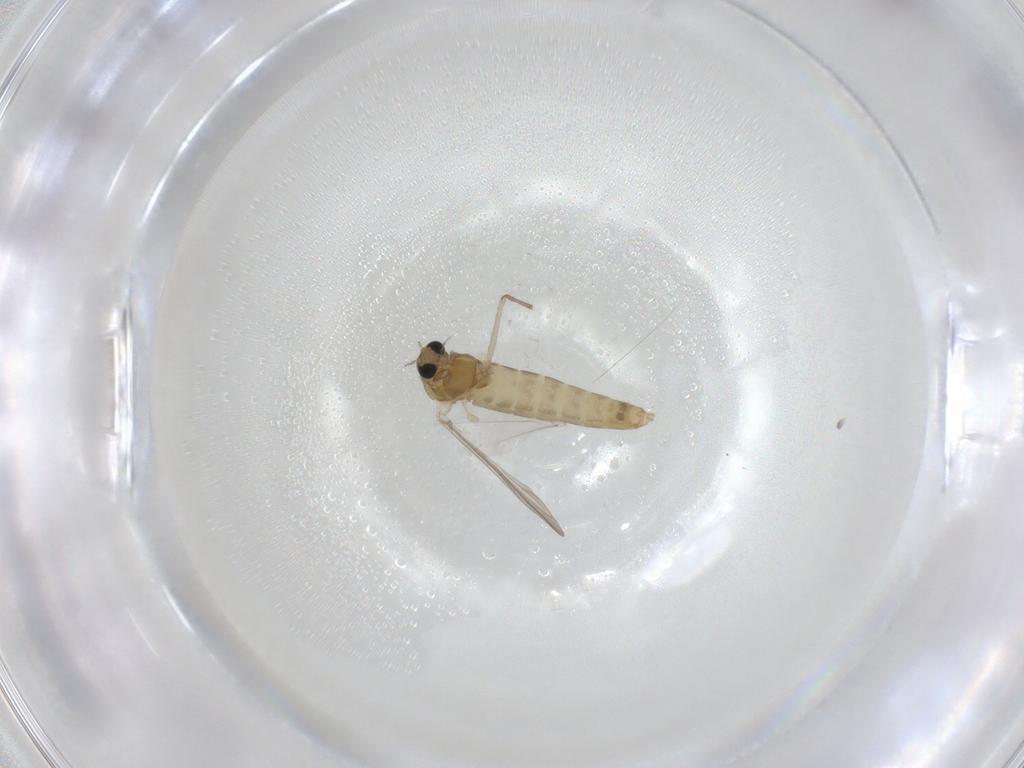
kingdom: Animalia
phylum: Arthropoda
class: Insecta
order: Diptera
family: Chironomidae
